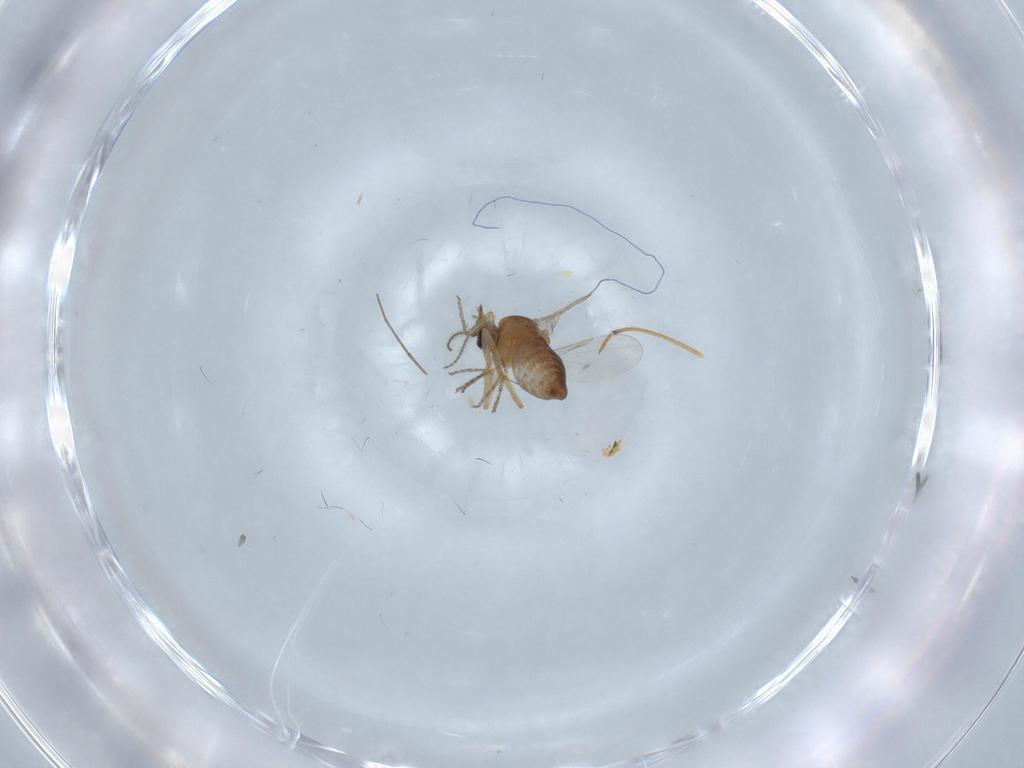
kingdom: Animalia
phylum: Arthropoda
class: Insecta
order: Diptera
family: Ceratopogonidae
